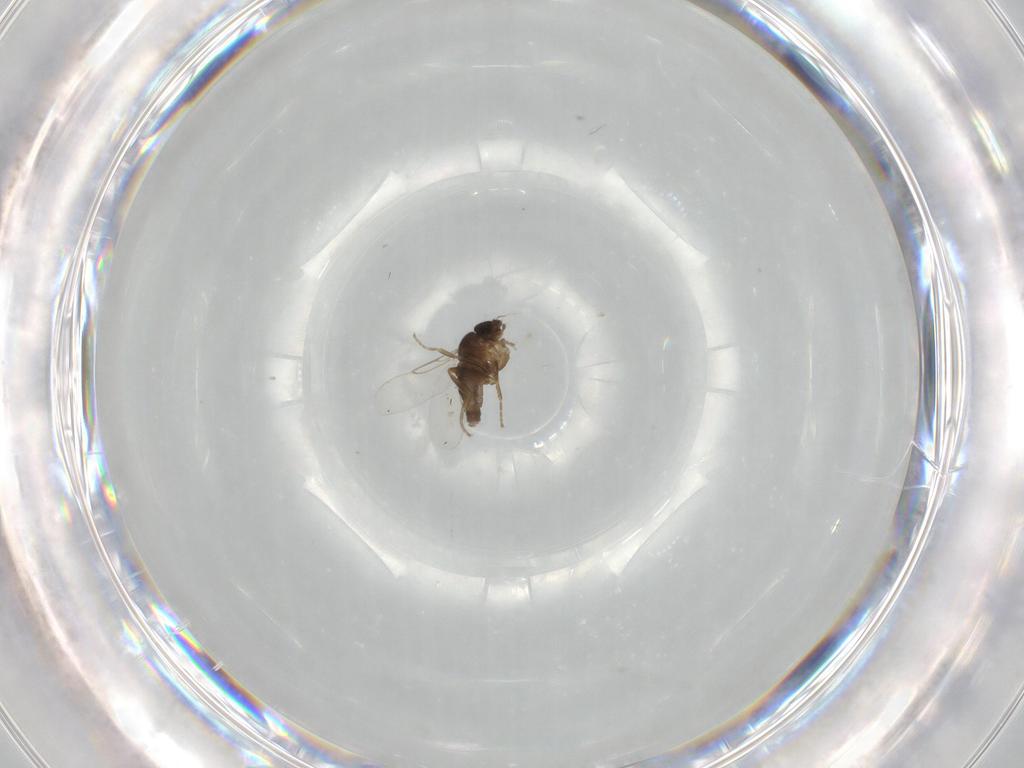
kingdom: Animalia
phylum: Arthropoda
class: Insecta
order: Diptera
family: Phoridae
